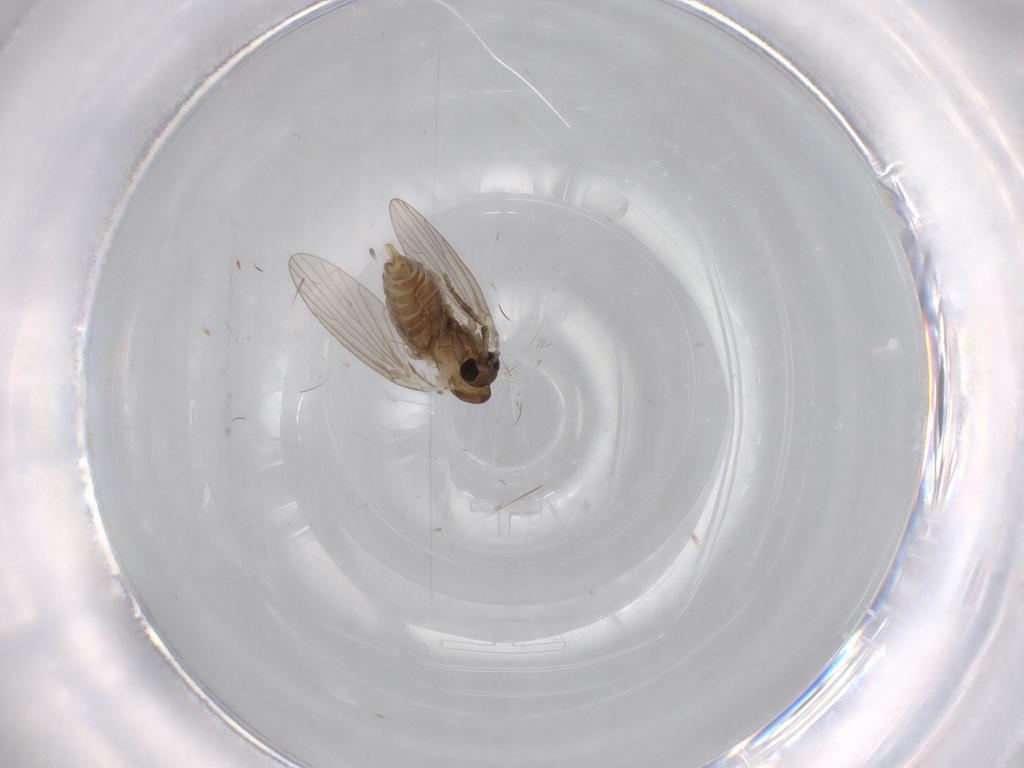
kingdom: Animalia
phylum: Arthropoda
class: Insecta
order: Diptera
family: Psychodidae
